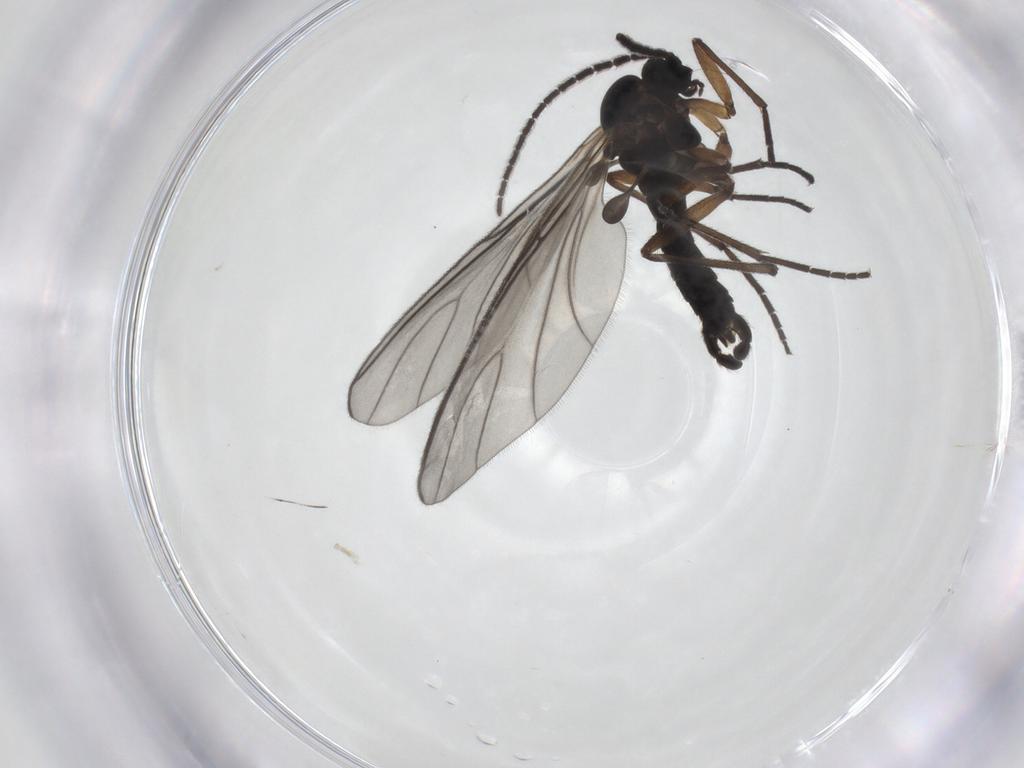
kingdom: Animalia
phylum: Arthropoda
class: Insecta
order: Diptera
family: Sciaridae
